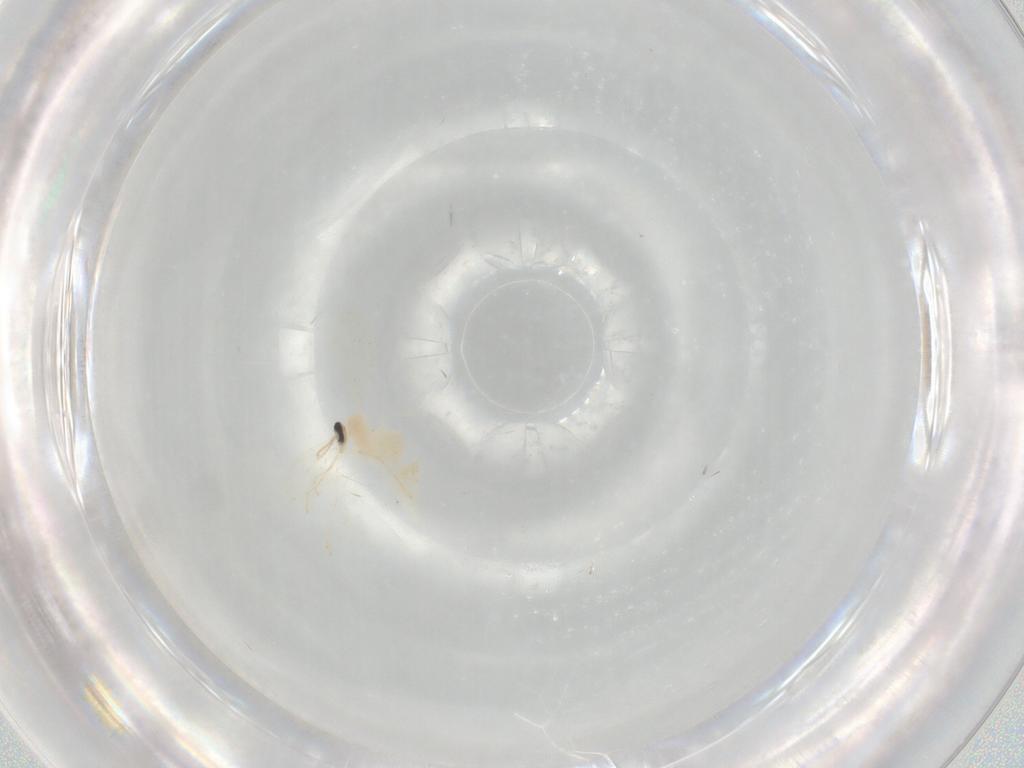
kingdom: Animalia
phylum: Arthropoda
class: Insecta
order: Diptera
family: Cecidomyiidae
